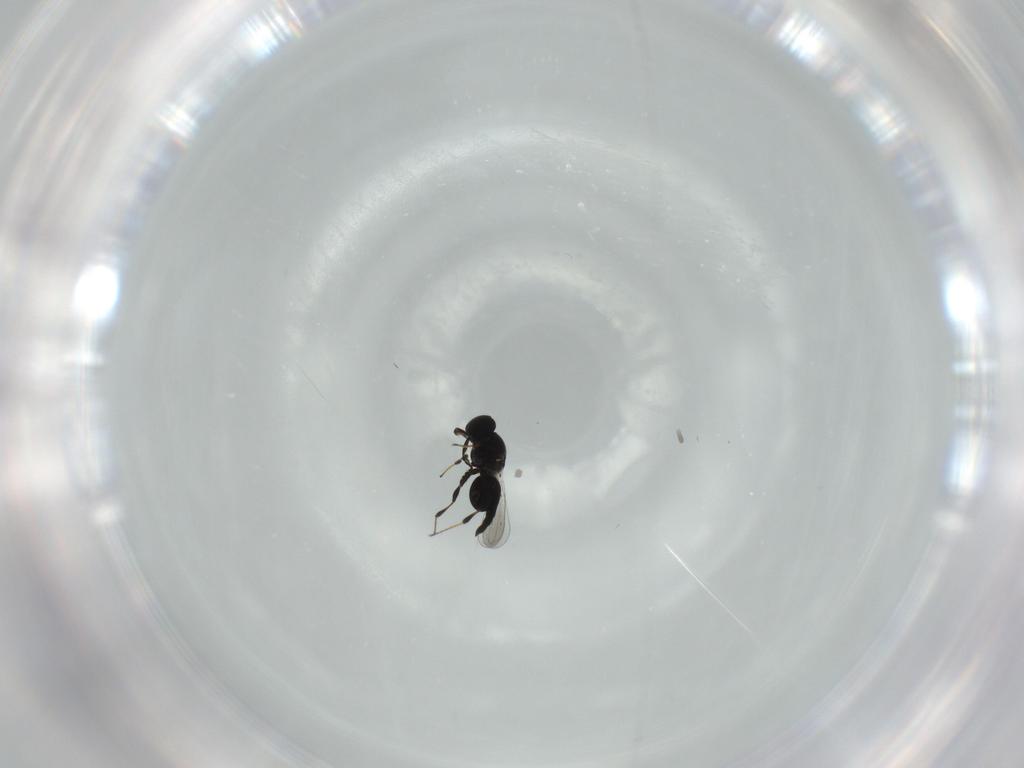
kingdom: Animalia
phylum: Arthropoda
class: Insecta
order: Hymenoptera
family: Platygastridae
